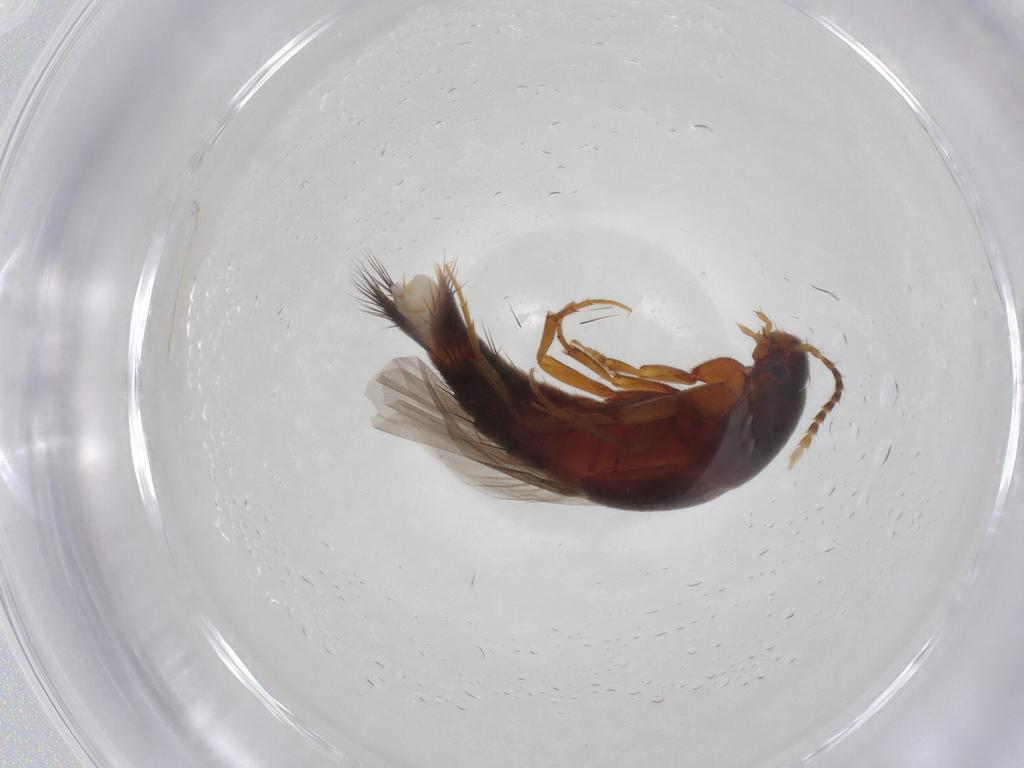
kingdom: Animalia
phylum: Arthropoda
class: Insecta
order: Coleoptera
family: Staphylinidae
